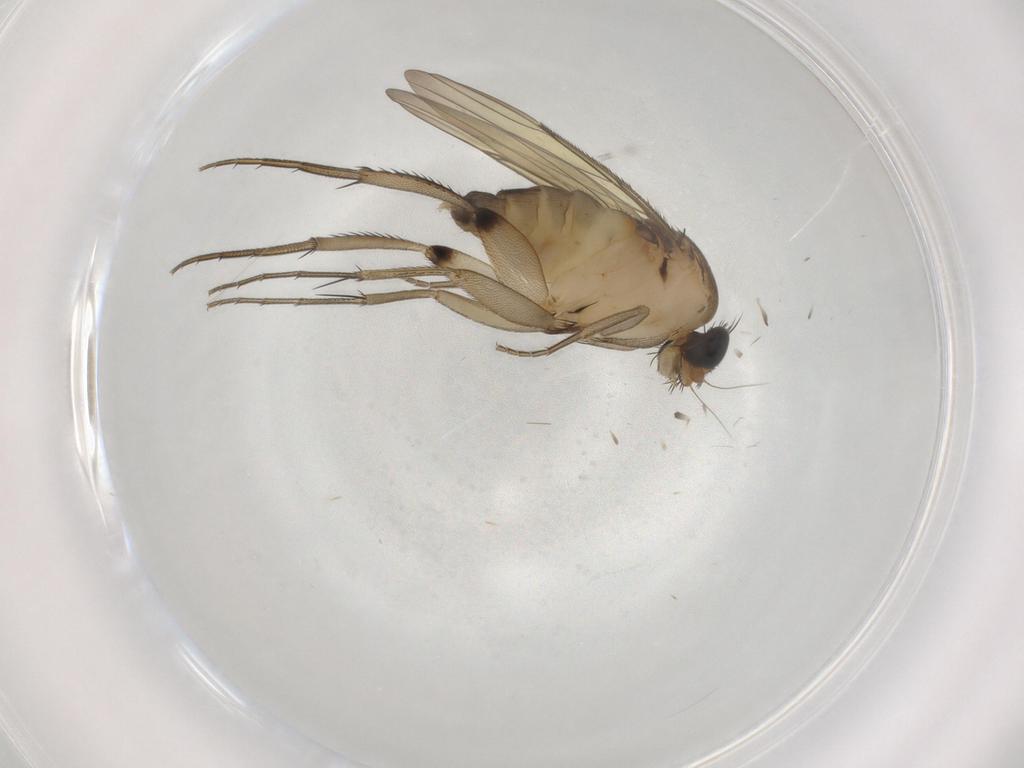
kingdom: Animalia
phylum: Arthropoda
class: Insecta
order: Diptera
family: Phoridae
